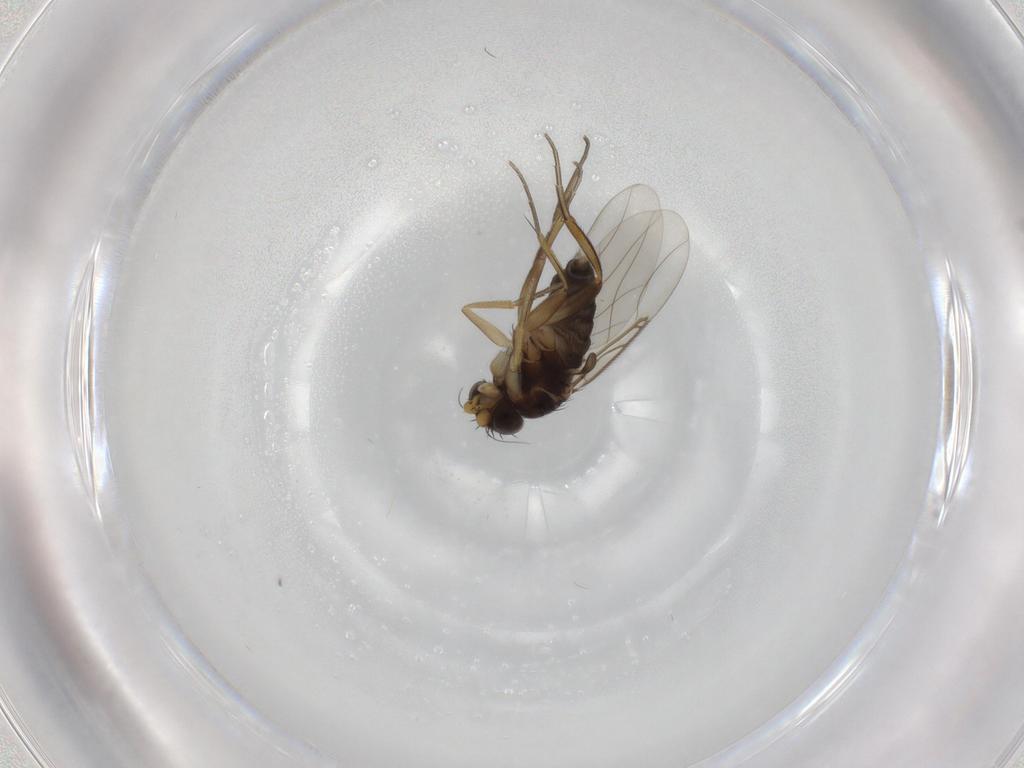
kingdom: Animalia
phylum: Arthropoda
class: Insecta
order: Diptera
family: Phoridae
